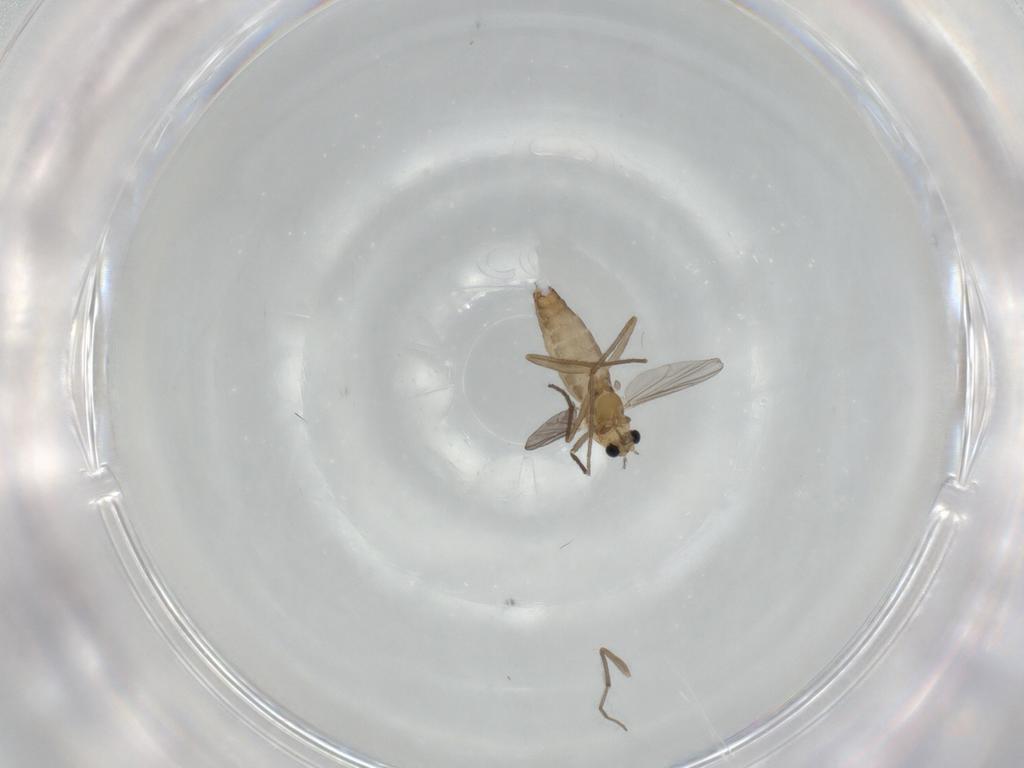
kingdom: Animalia
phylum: Arthropoda
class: Insecta
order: Diptera
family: Chironomidae
